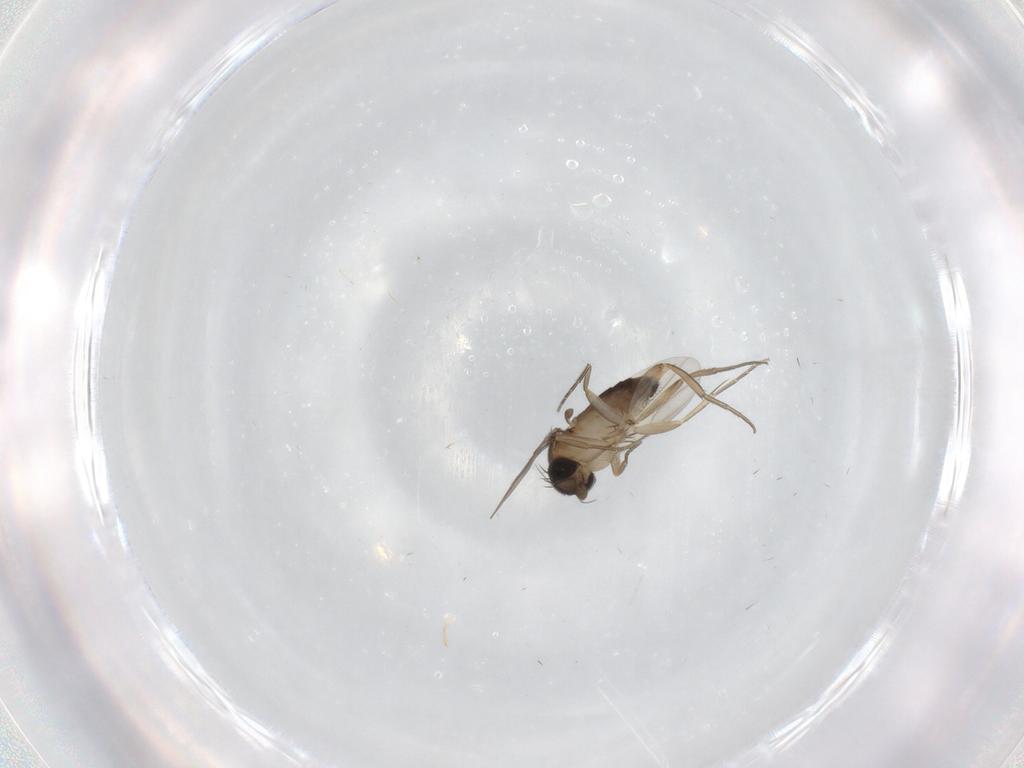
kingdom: Animalia
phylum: Arthropoda
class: Insecta
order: Diptera
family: Phoridae
